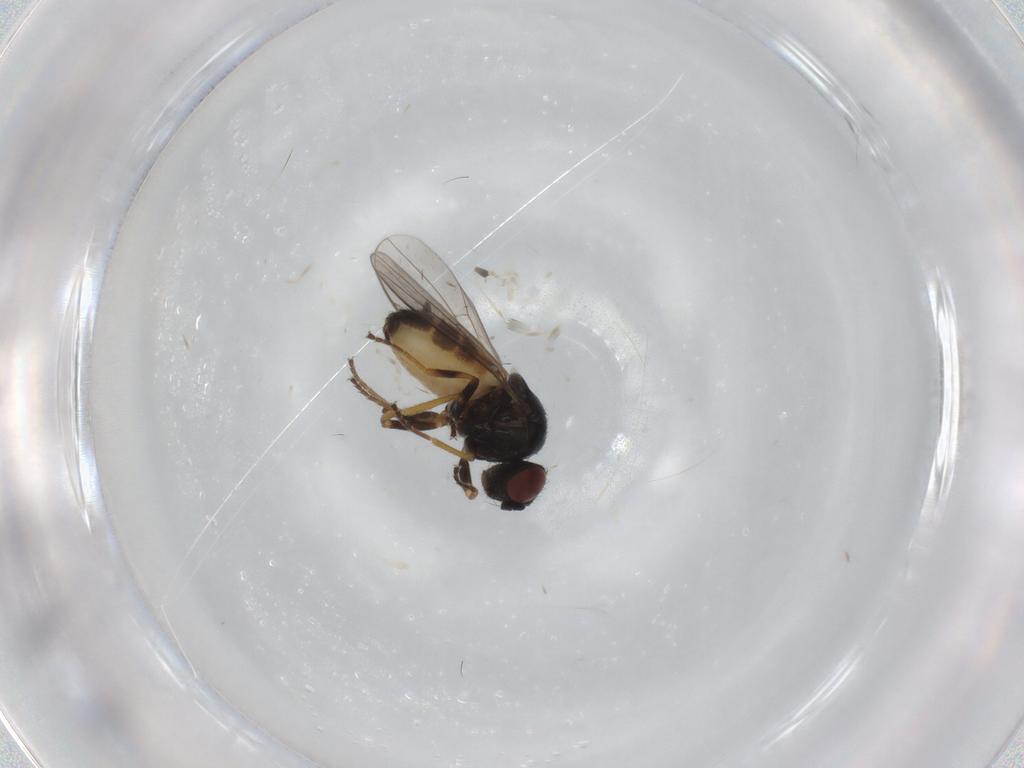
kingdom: Animalia
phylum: Arthropoda
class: Insecta
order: Diptera
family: Chloropidae
